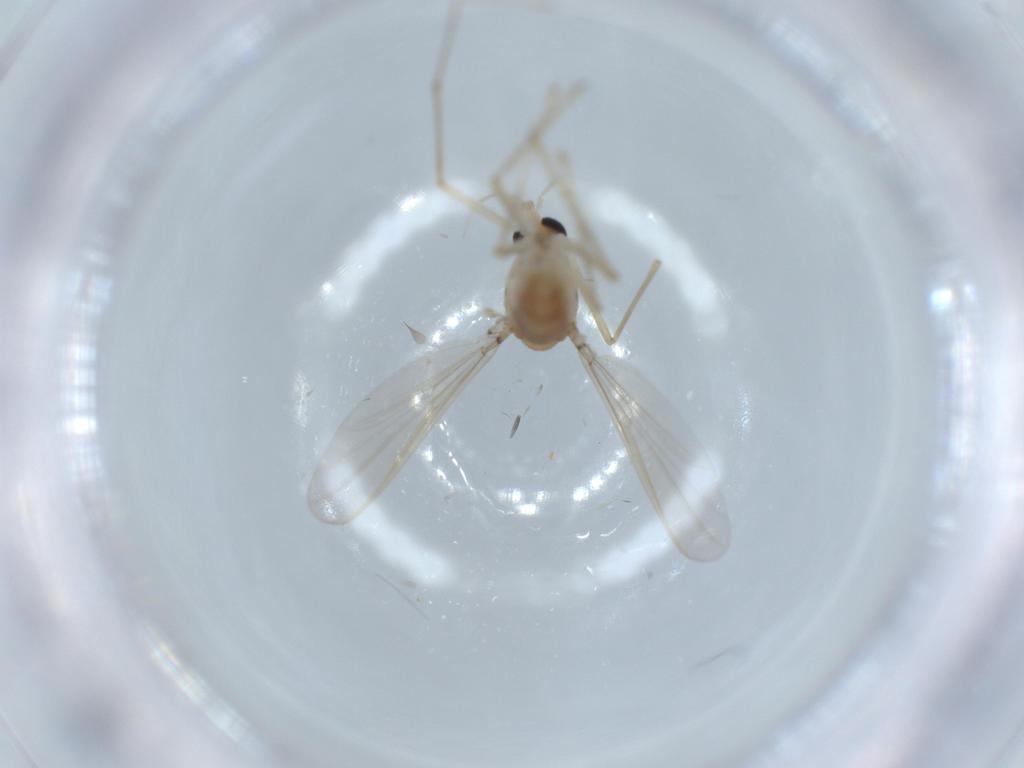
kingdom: Animalia
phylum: Arthropoda
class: Insecta
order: Diptera
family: Chironomidae
